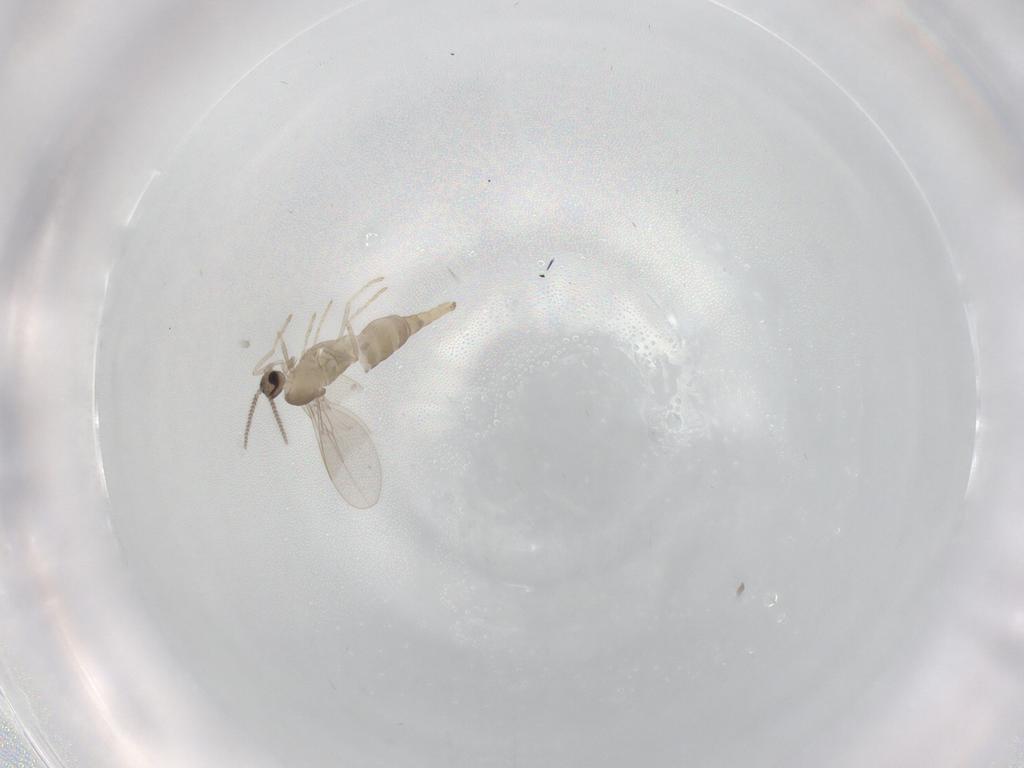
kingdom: Animalia
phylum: Arthropoda
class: Insecta
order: Diptera
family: Cecidomyiidae
